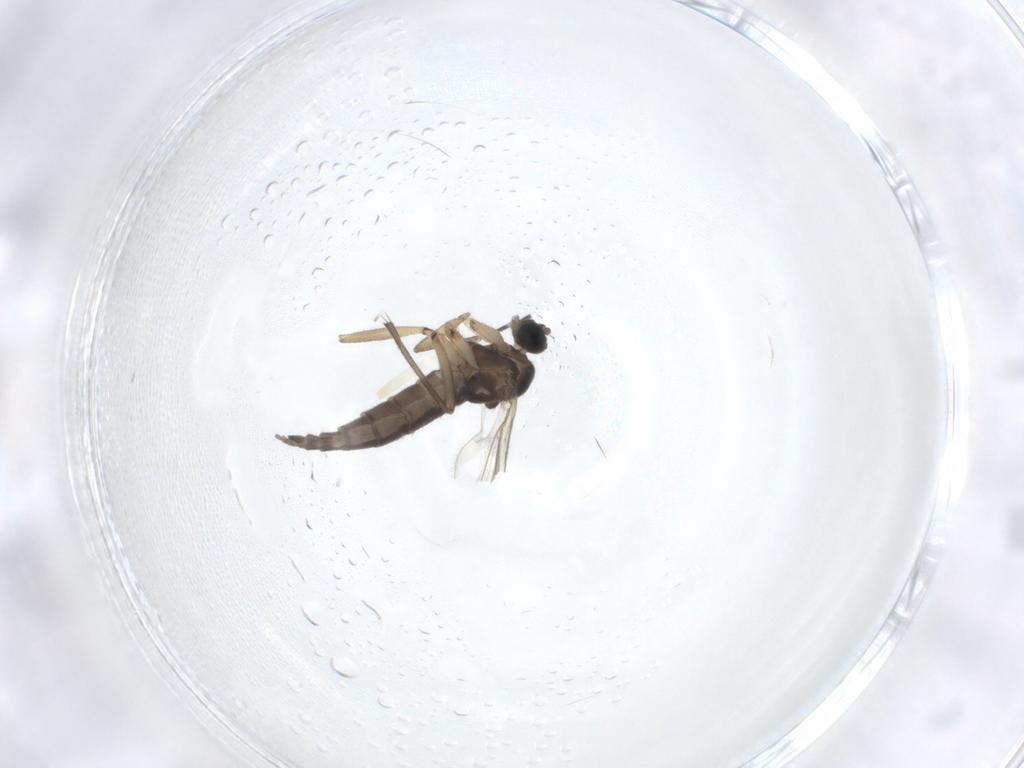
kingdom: Animalia
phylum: Arthropoda
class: Insecta
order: Diptera
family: Sciaridae
